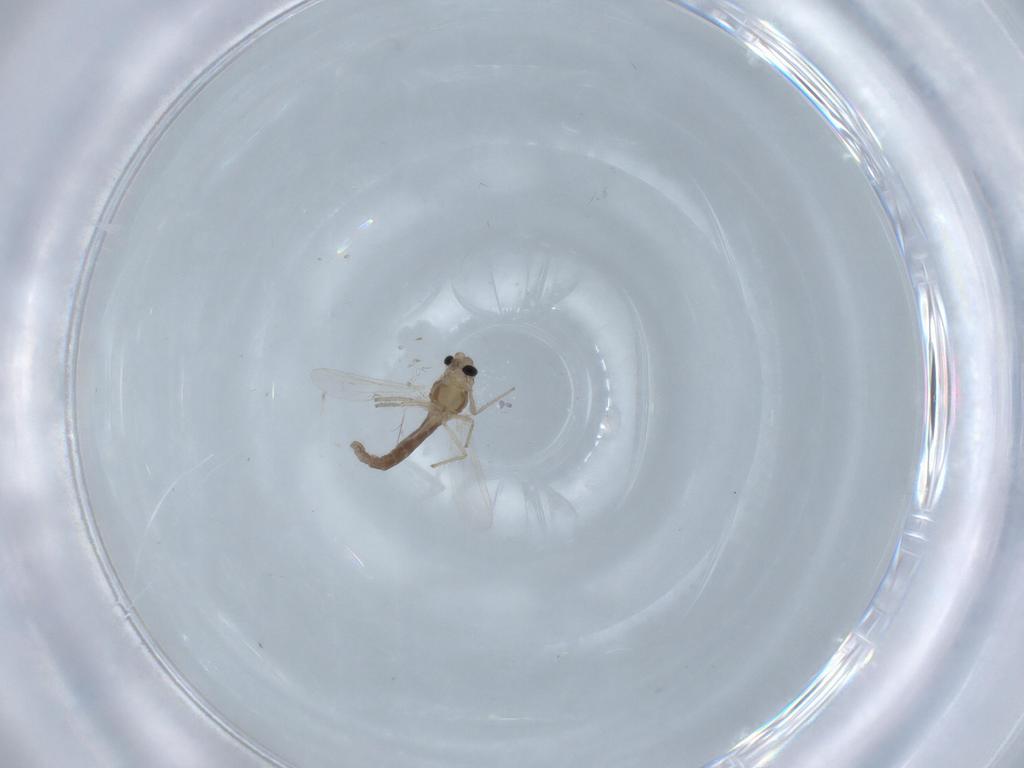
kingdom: Animalia
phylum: Arthropoda
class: Insecta
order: Diptera
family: Chironomidae
